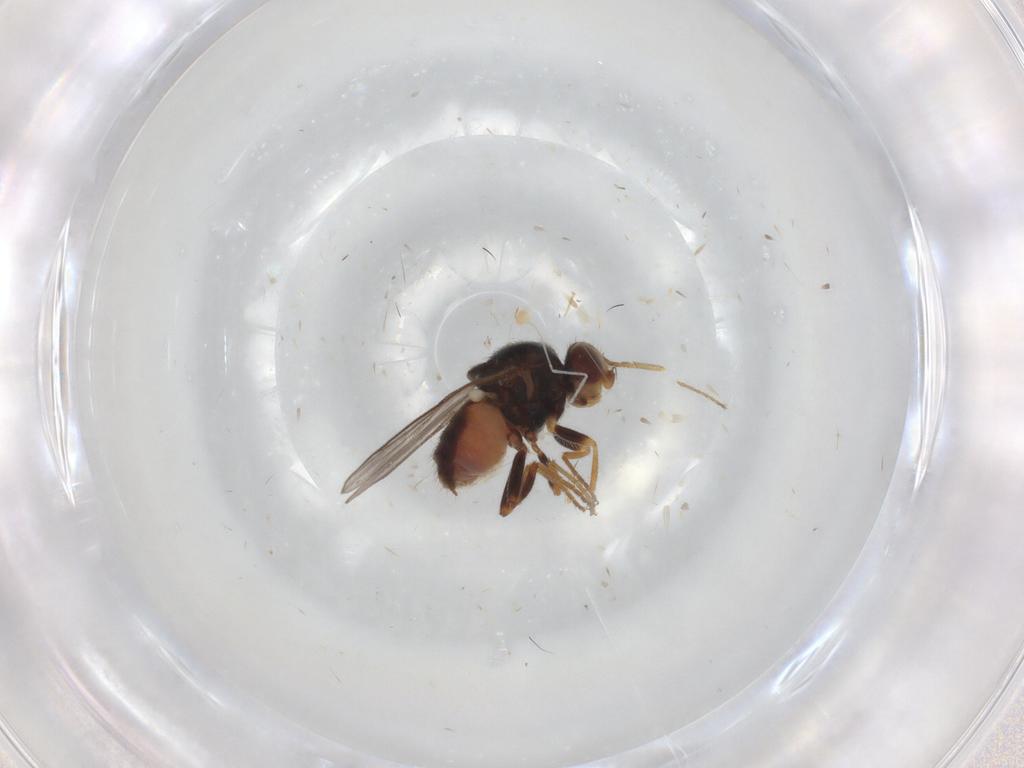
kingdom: Animalia
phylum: Arthropoda
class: Insecta
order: Diptera
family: Chloropidae
